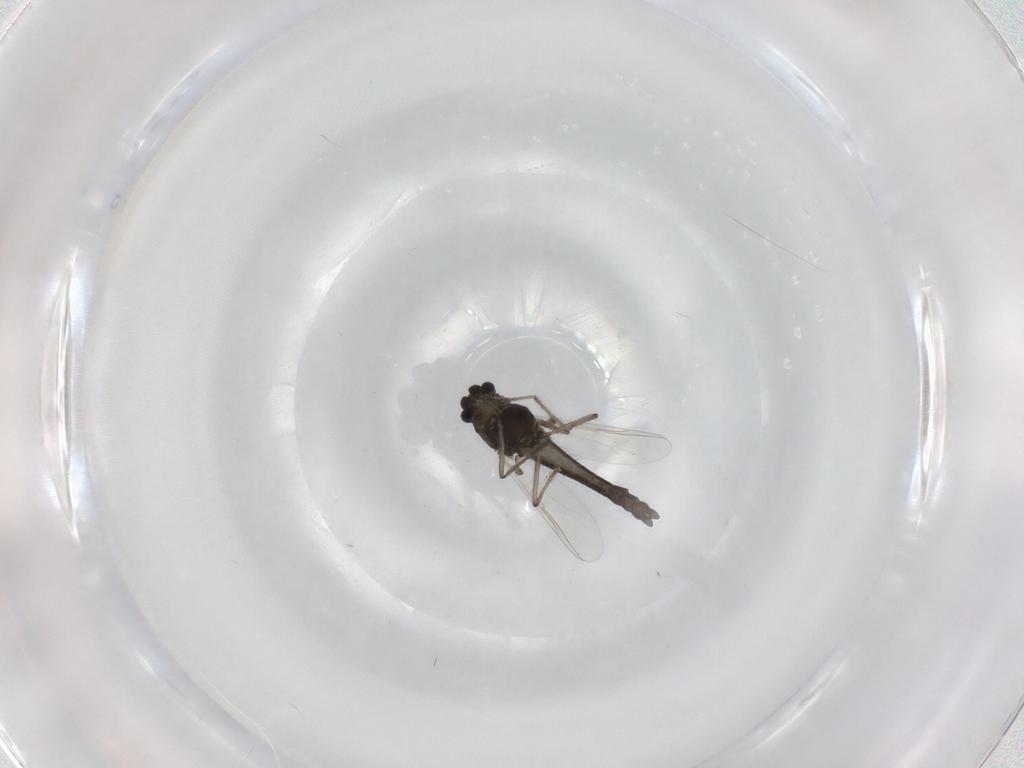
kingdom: Animalia
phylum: Arthropoda
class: Insecta
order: Diptera
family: Chironomidae
